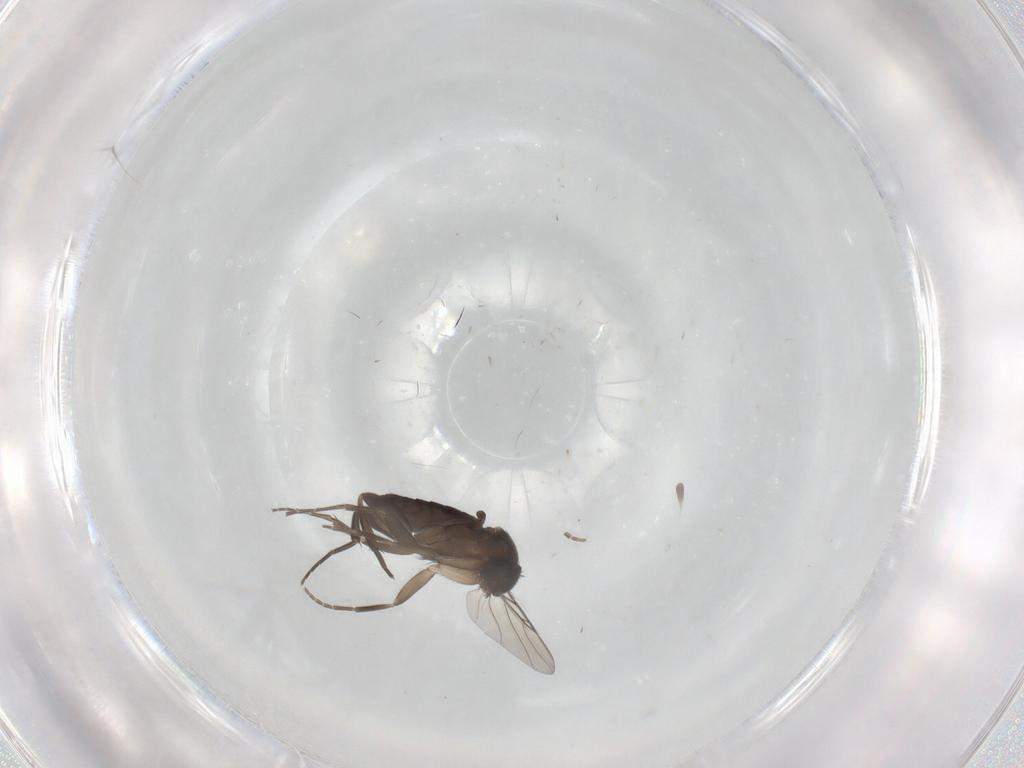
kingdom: Animalia
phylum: Arthropoda
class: Insecta
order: Diptera
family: Phoridae
